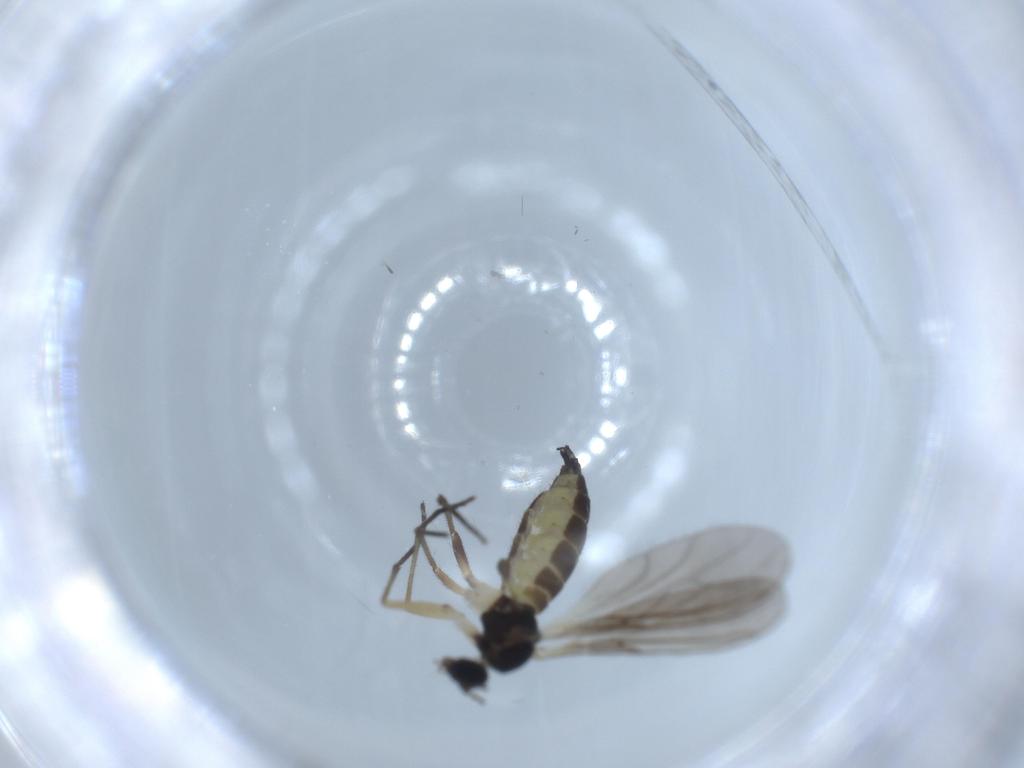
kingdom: Animalia
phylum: Arthropoda
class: Insecta
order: Diptera
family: Sciaridae
